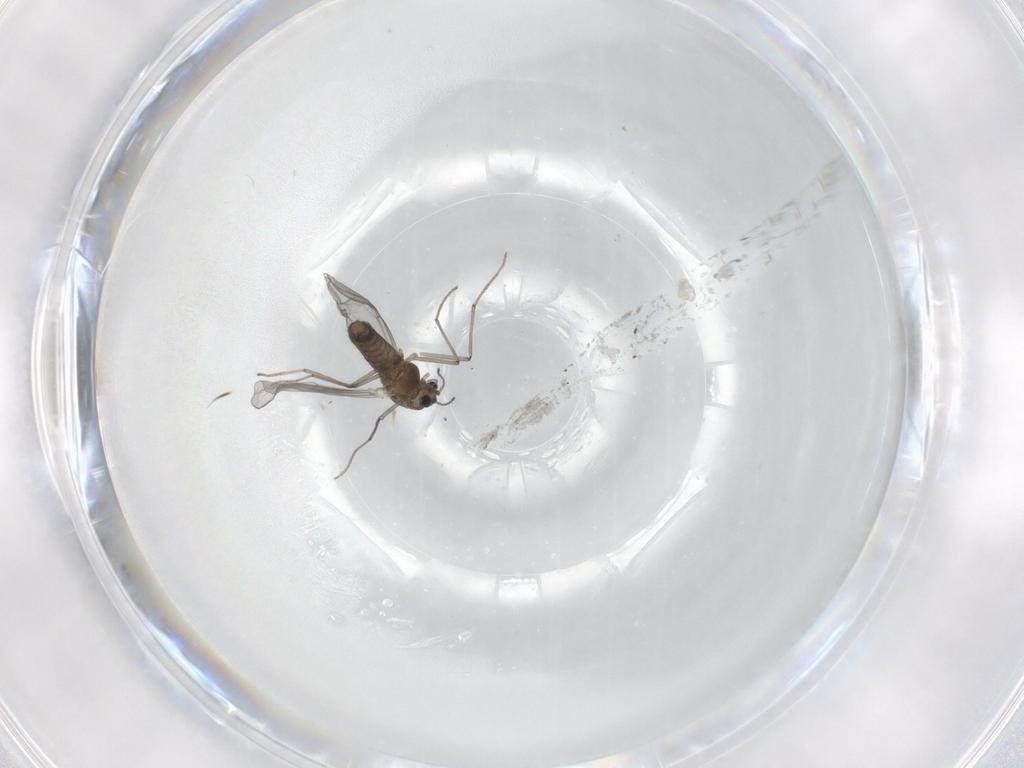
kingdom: Animalia
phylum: Arthropoda
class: Insecta
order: Diptera
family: Chironomidae
